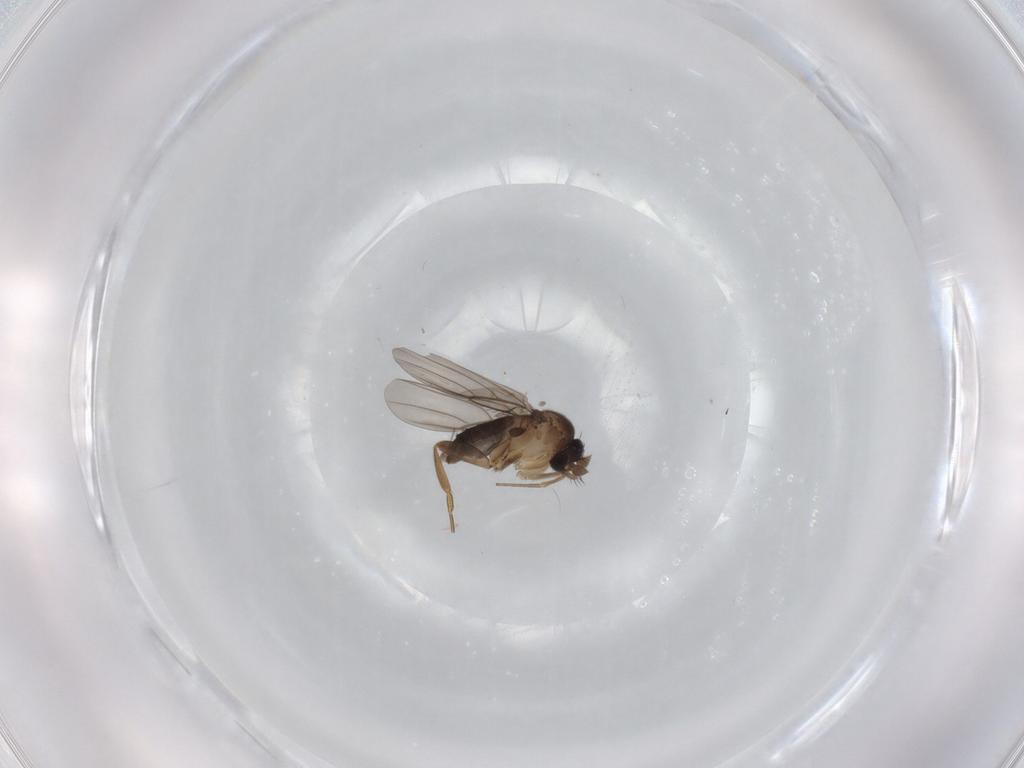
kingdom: Animalia
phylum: Arthropoda
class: Insecta
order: Diptera
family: Phoridae
